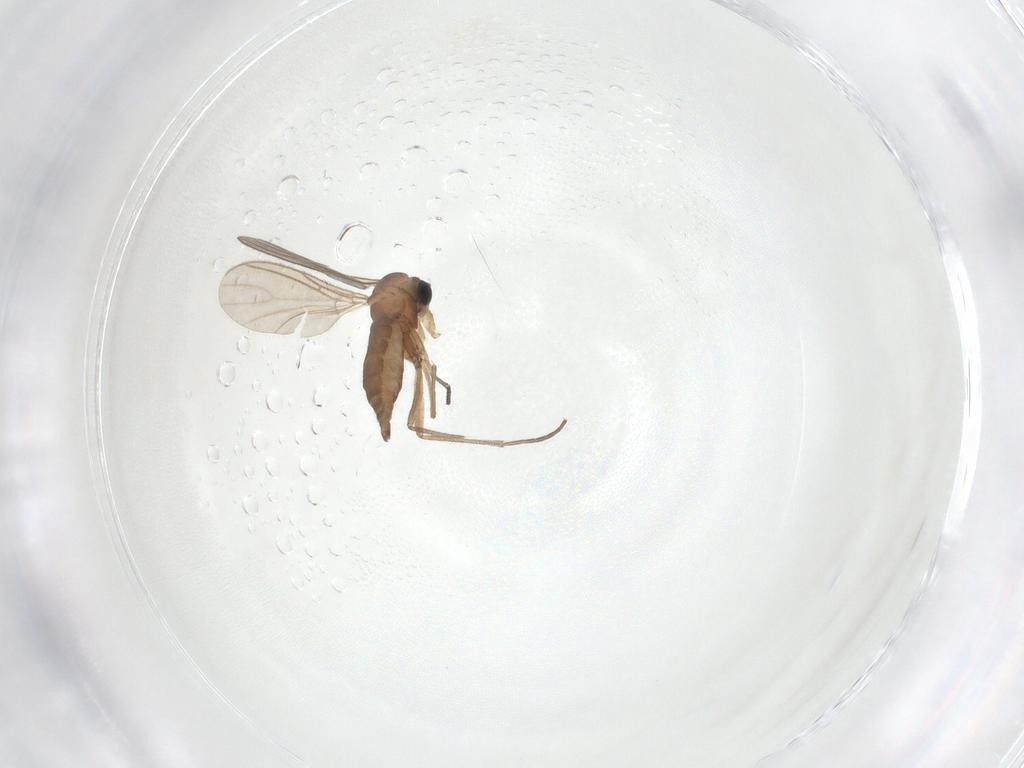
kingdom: Animalia
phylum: Arthropoda
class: Insecta
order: Diptera
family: Sciaridae
